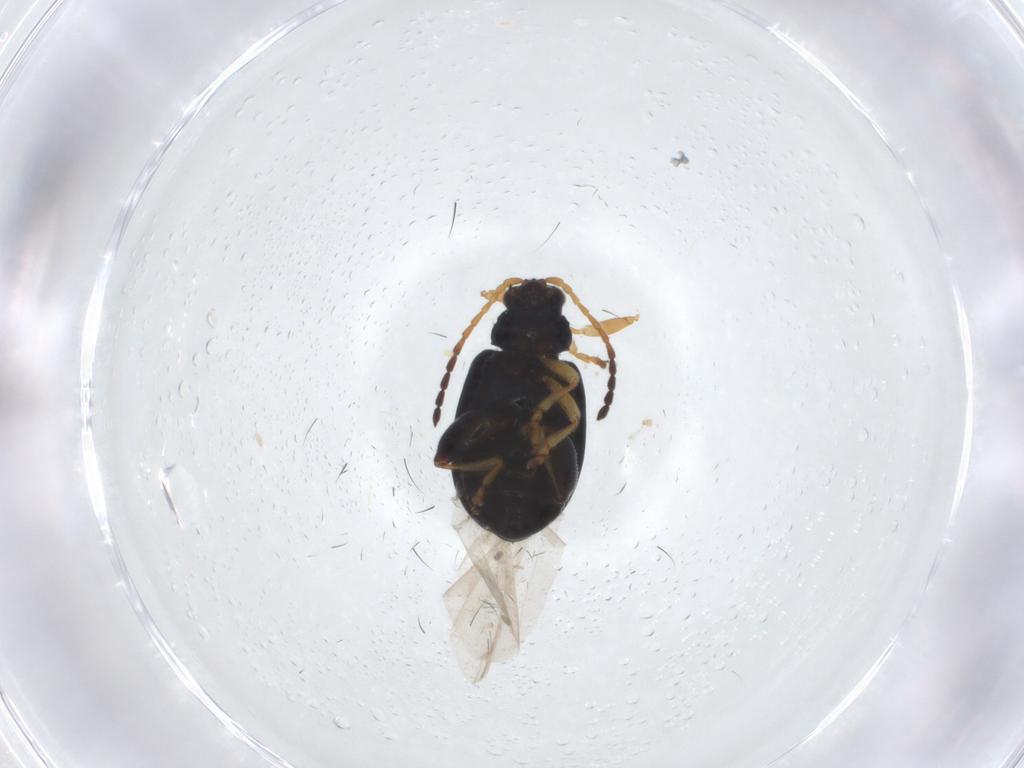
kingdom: Animalia
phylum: Arthropoda
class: Insecta
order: Coleoptera
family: Chrysomelidae
